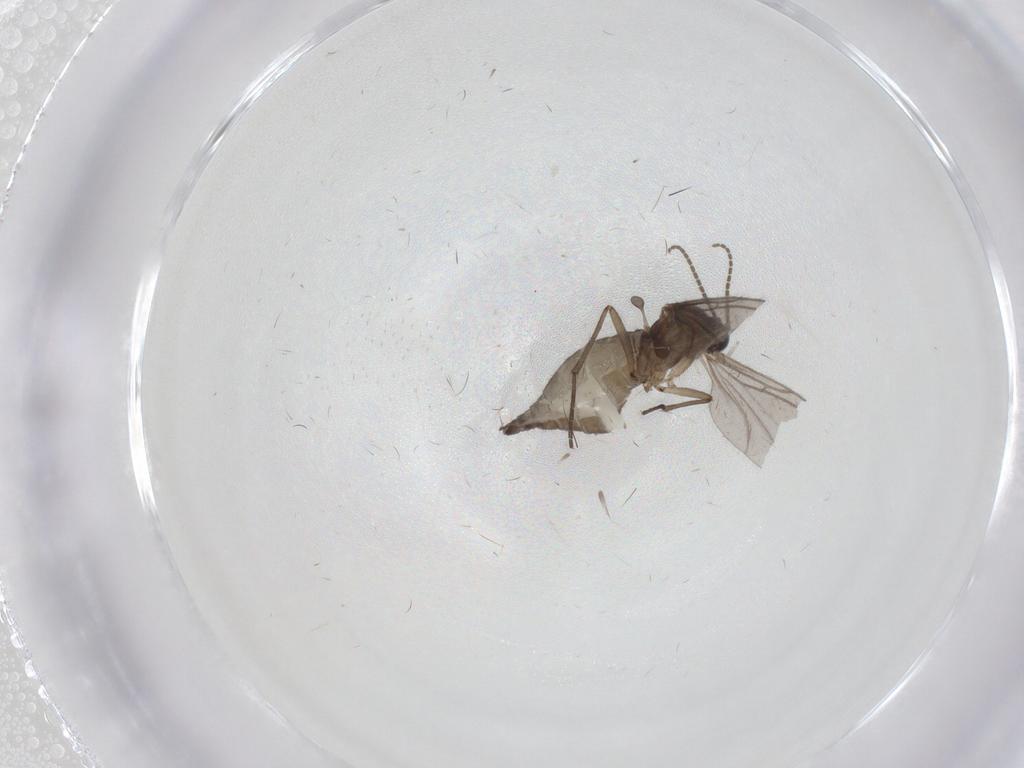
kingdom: Animalia
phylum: Arthropoda
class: Insecta
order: Diptera
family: Sciaridae
